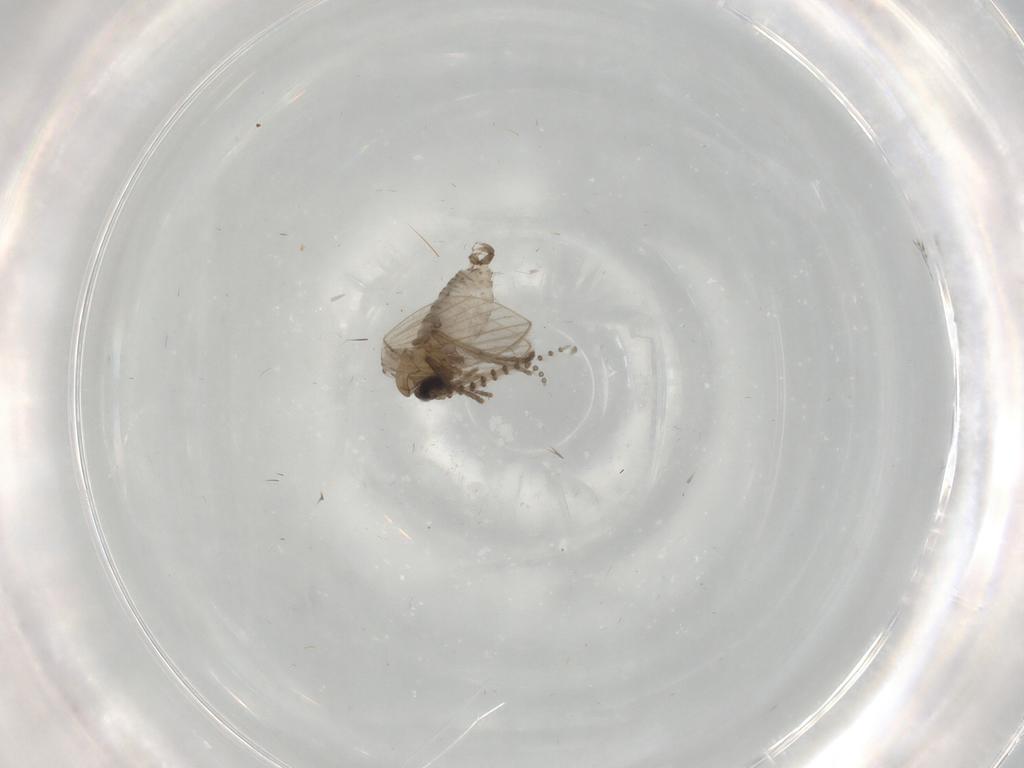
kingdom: Animalia
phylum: Arthropoda
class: Insecta
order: Diptera
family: Psychodidae
